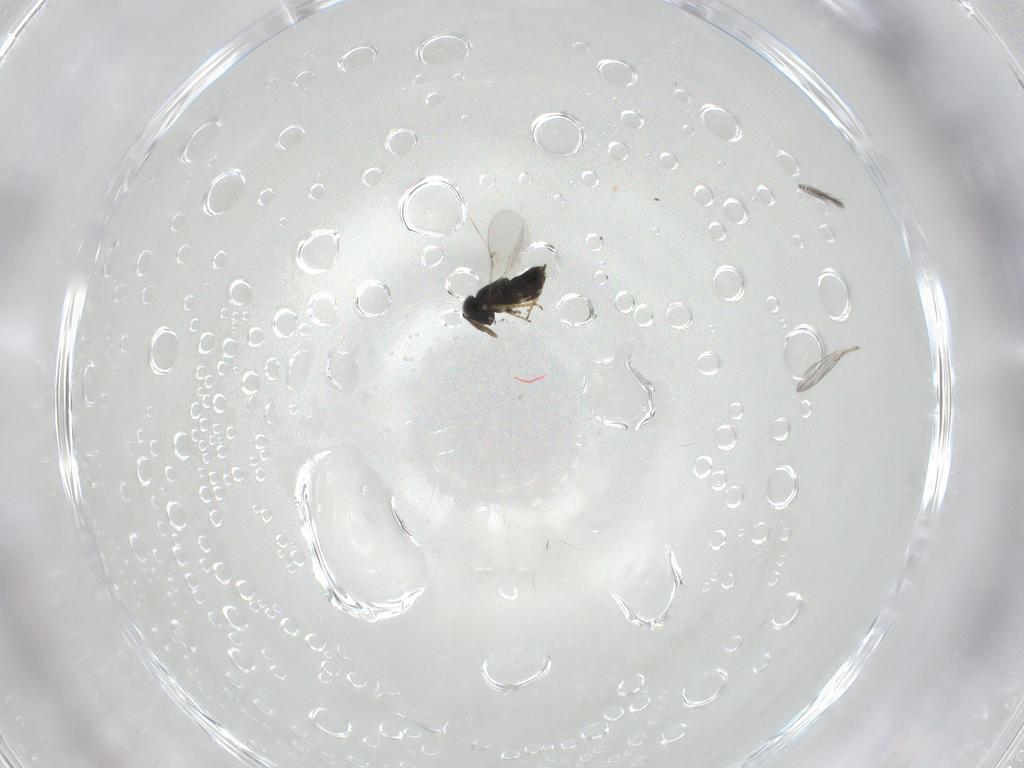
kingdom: Animalia
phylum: Arthropoda
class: Insecta
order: Hymenoptera
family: Encyrtidae
